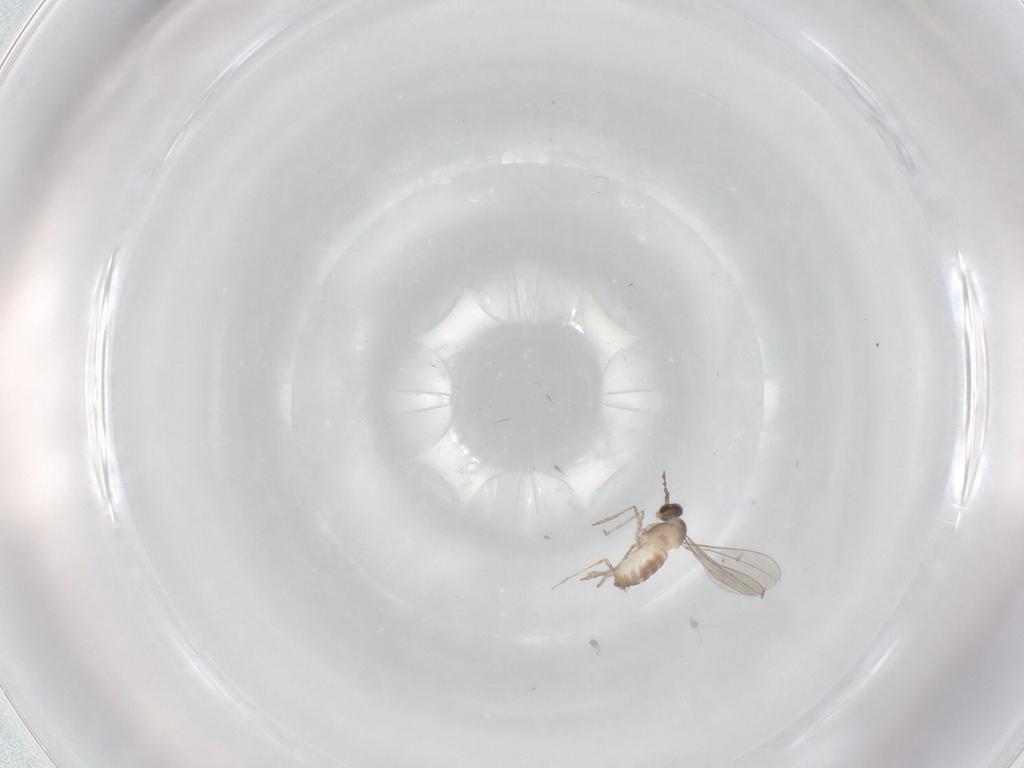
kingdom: Animalia
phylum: Arthropoda
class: Insecta
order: Diptera
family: Cecidomyiidae
